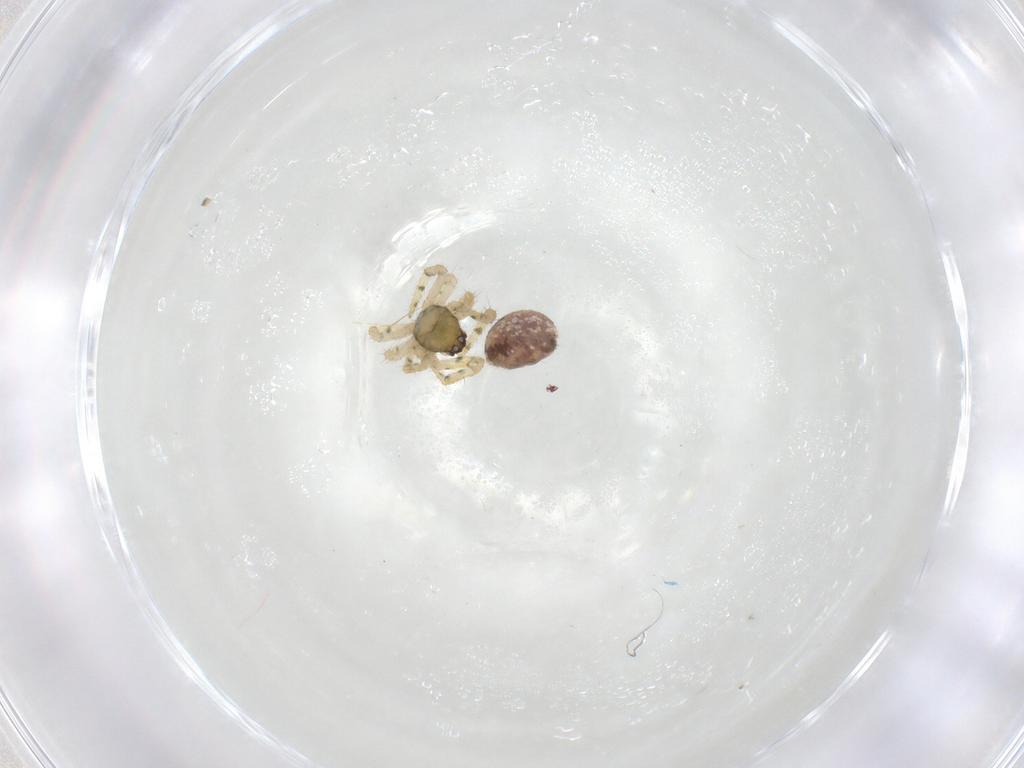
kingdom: Animalia
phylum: Arthropoda
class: Arachnida
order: Araneae
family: Theridiidae
